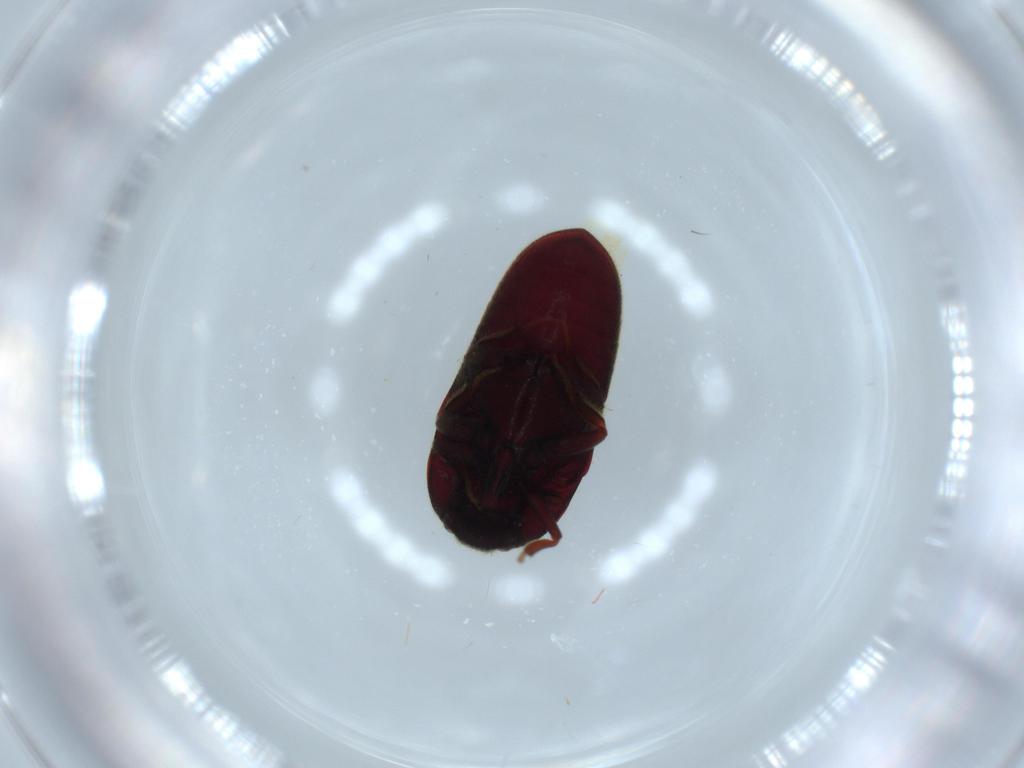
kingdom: Animalia
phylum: Arthropoda
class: Insecta
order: Coleoptera
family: Throscidae
